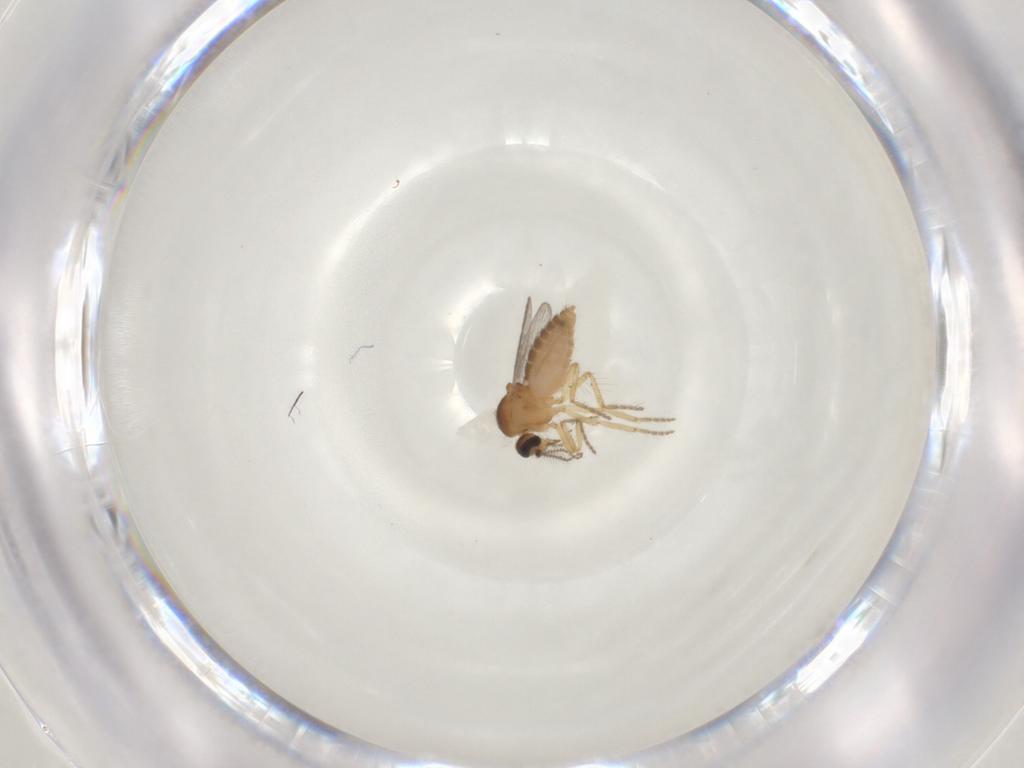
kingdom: Animalia
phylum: Arthropoda
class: Insecta
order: Diptera
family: Ceratopogonidae
